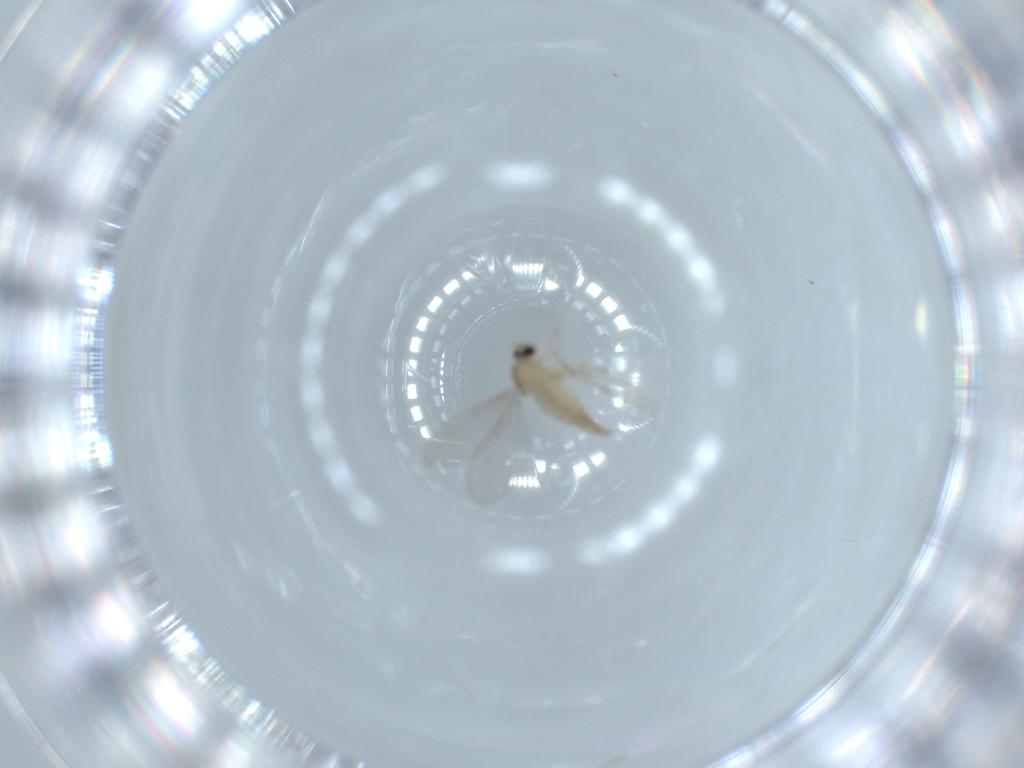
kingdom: Animalia
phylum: Arthropoda
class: Insecta
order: Diptera
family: Cecidomyiidae
